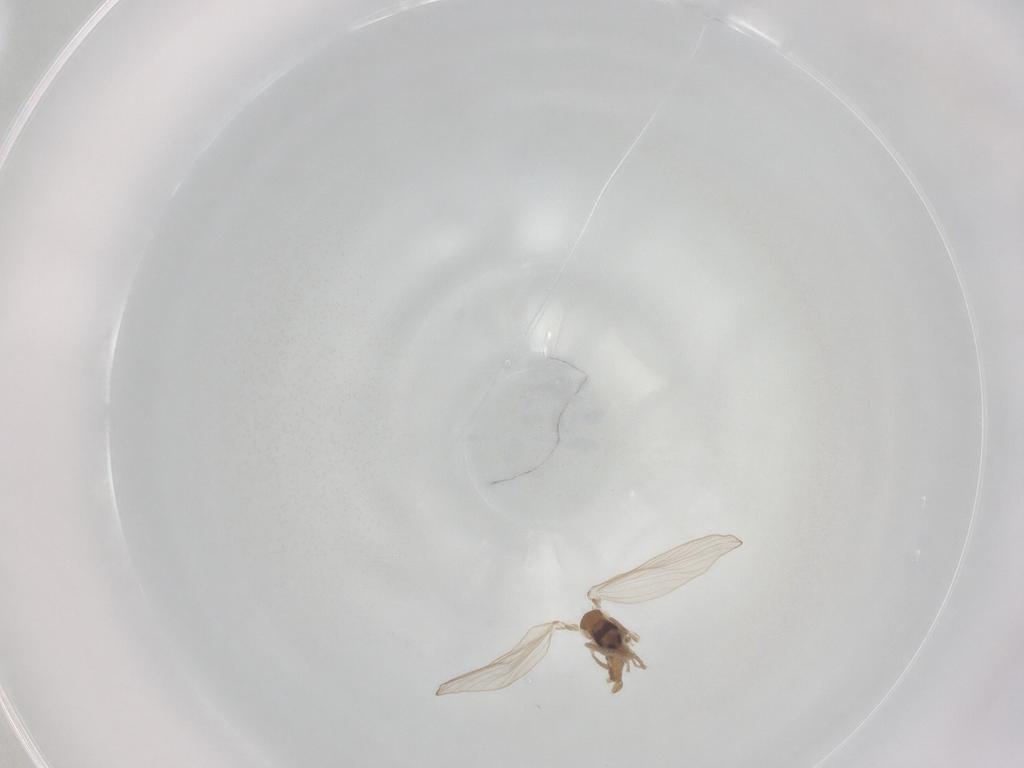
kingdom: Animalia
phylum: Arthropoda
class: Insecta
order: Diptera
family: Psychodidae
